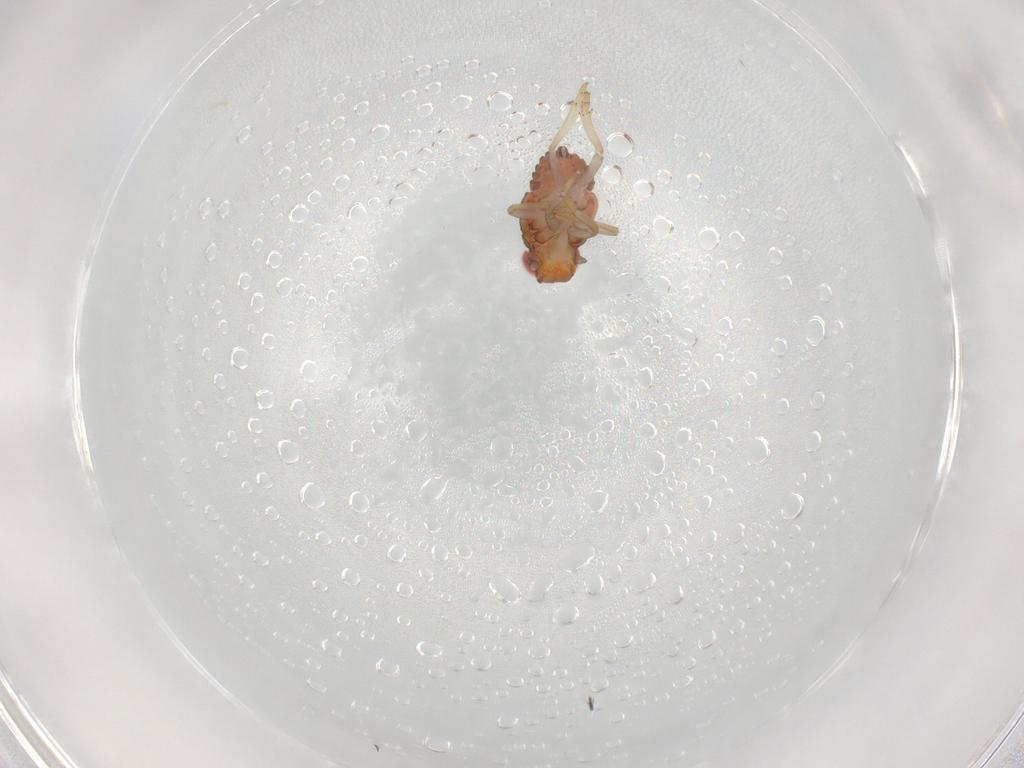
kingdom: Animalia
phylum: Arthropoda
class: Insecta
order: Hemiptera
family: Issidae
